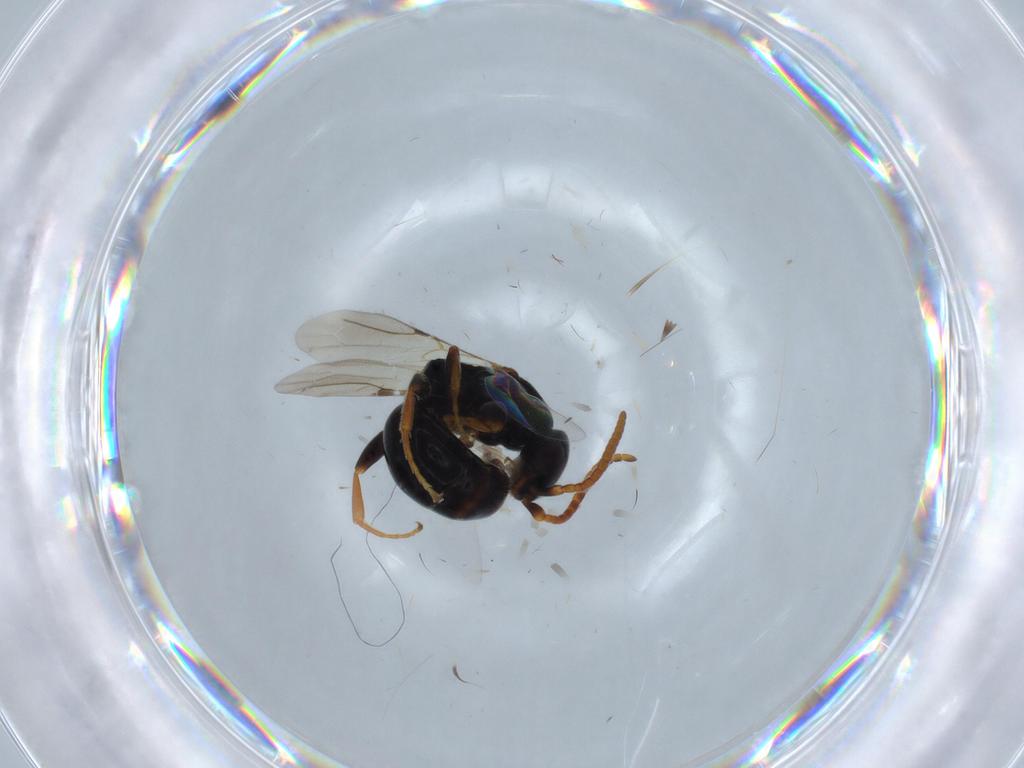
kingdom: Animalia
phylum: Arthropoda
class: Insecta
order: Hymenoptera
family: Bethylidae
